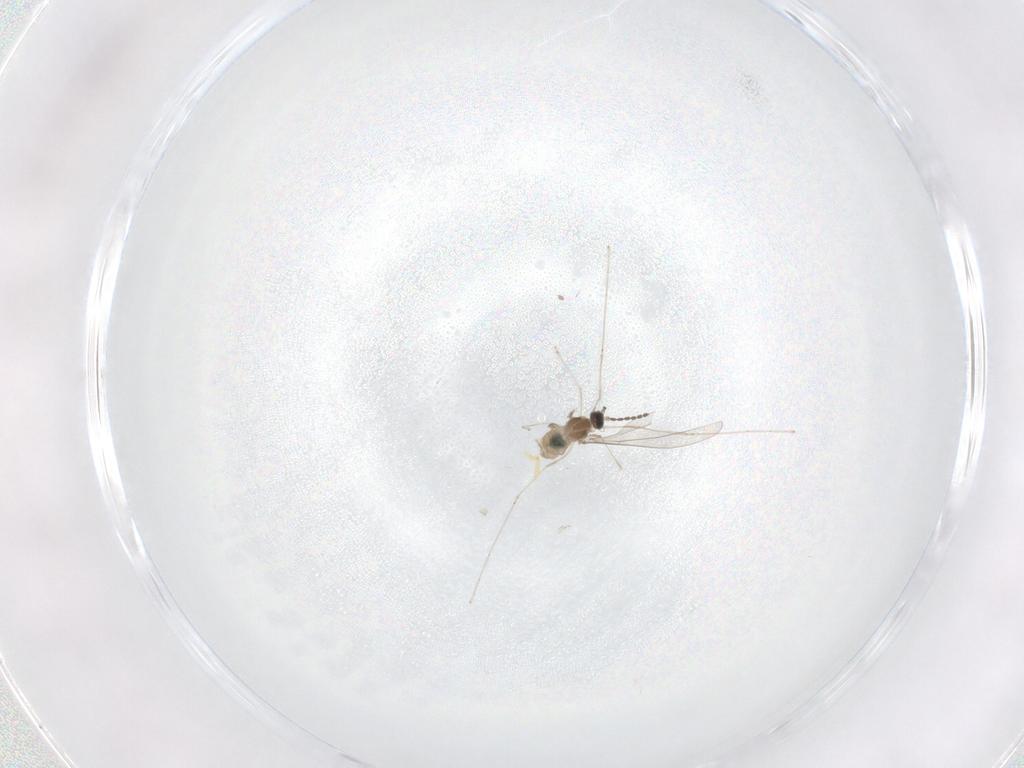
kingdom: Animalia
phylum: Arthropoda
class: Insecta
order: Diptera
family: Cecidomyiidae
